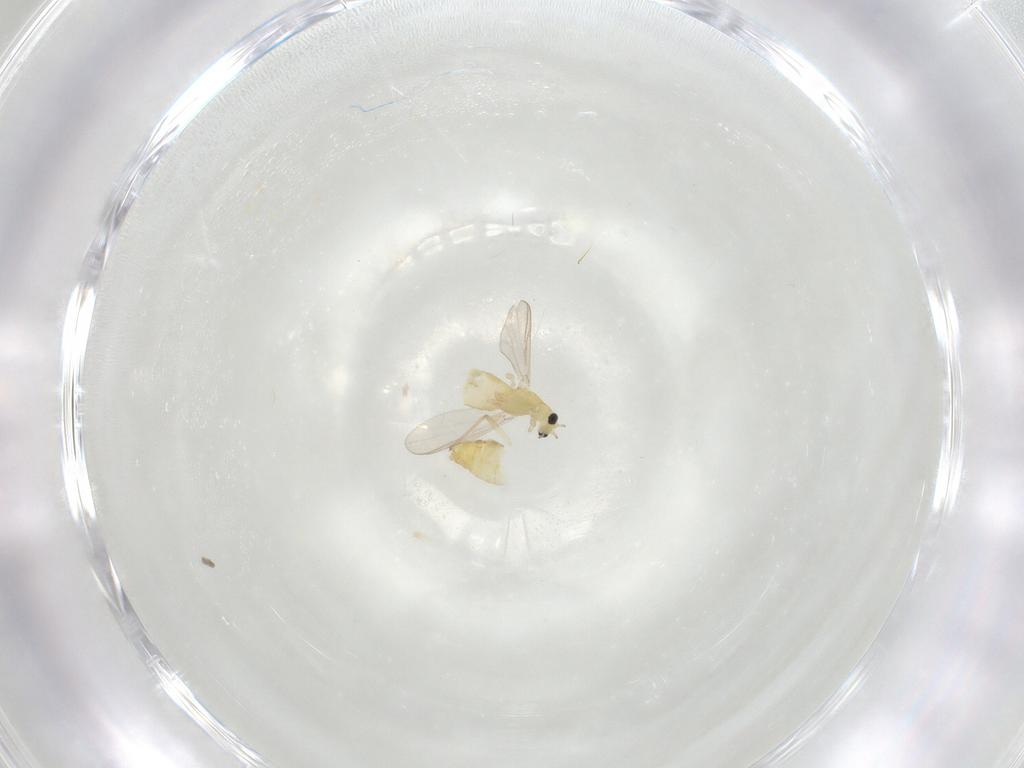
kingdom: Animalia
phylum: Arthropoda
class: Insecta
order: Diptera
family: Chironomidae
